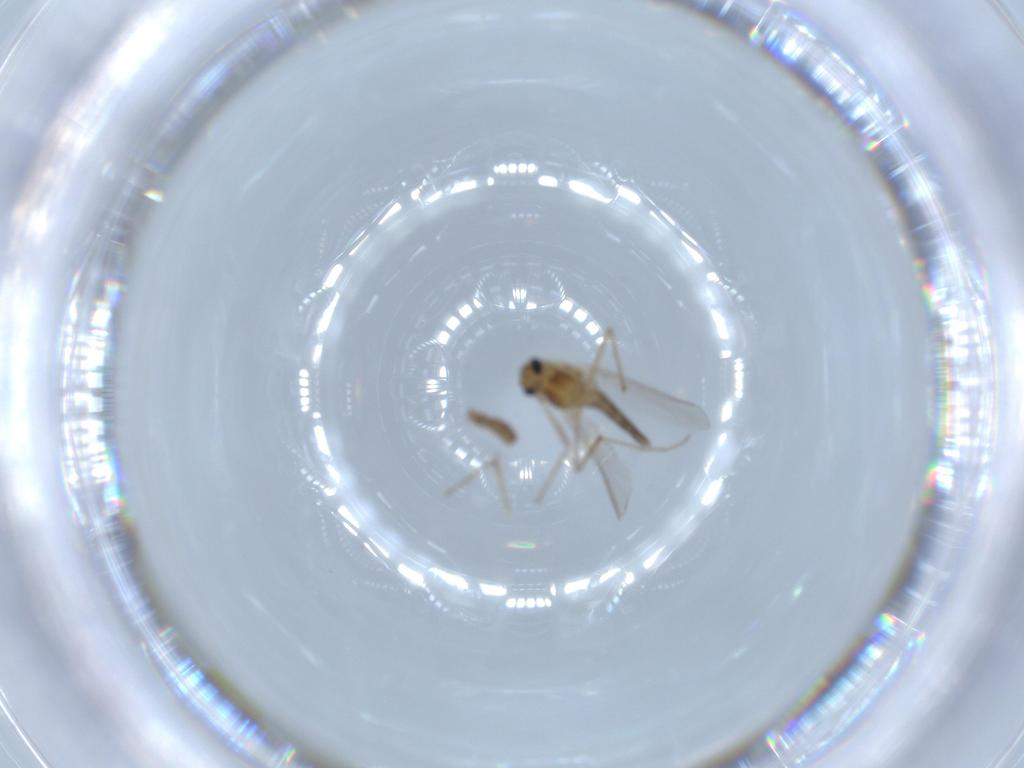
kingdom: Animalia
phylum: Arthropoda
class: Insecta
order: Diptera
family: Chironomidae
